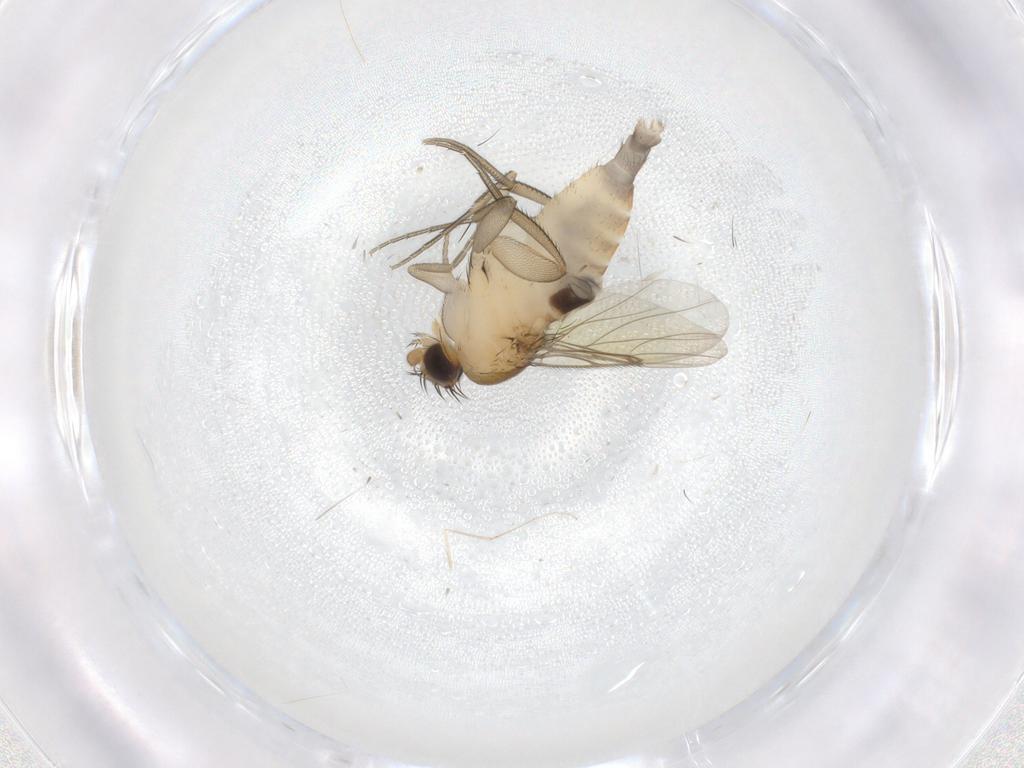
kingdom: Animalia
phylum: Arthropoda
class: Insecta
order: Diptera
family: Phoridae
